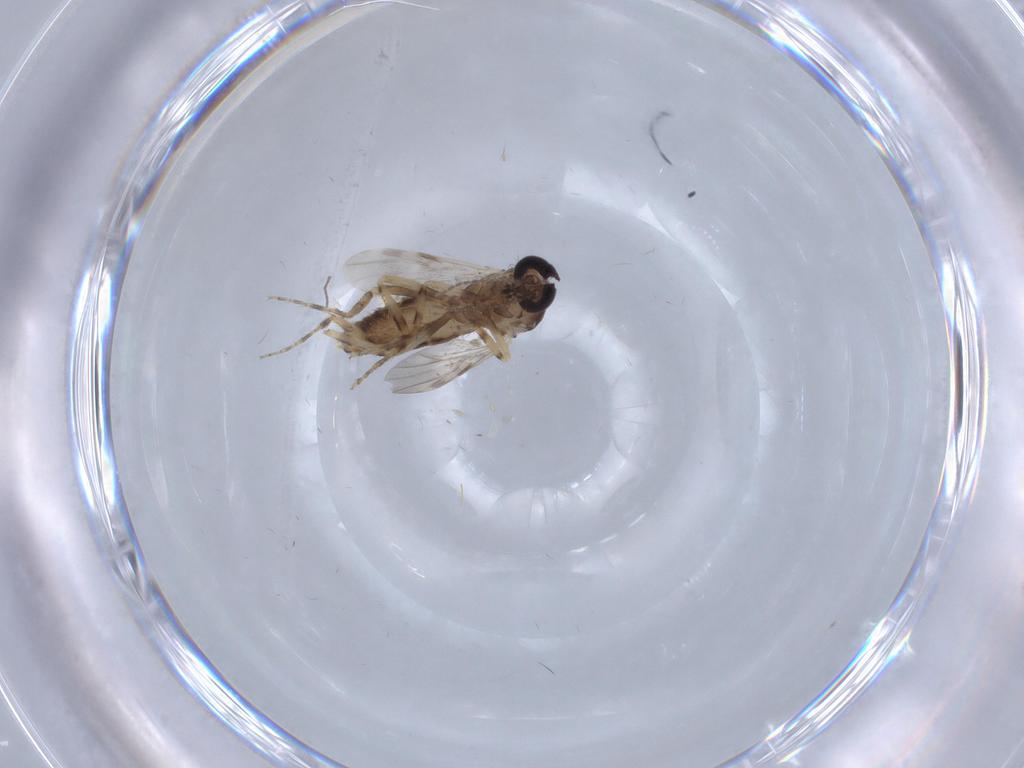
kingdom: Animalia
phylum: Arthropoda
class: Insecta
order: Diptera
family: Ceratopogonidae
